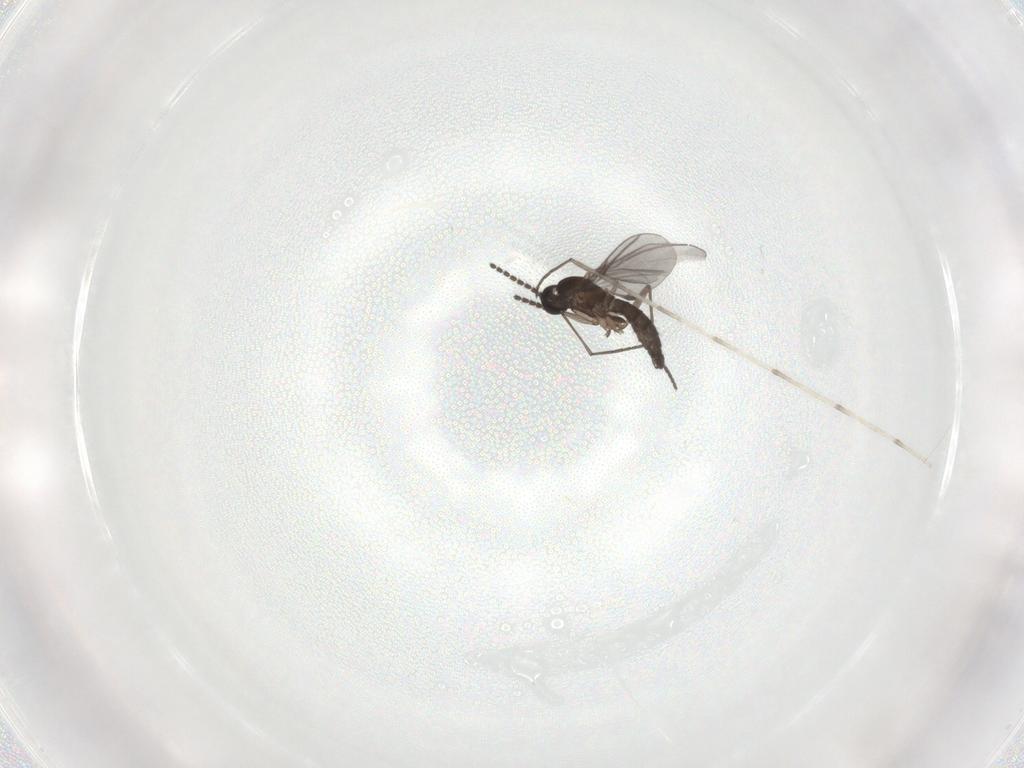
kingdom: Animalia
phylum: Arthropoda
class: Insecta
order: Diptera
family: Sciaridae
